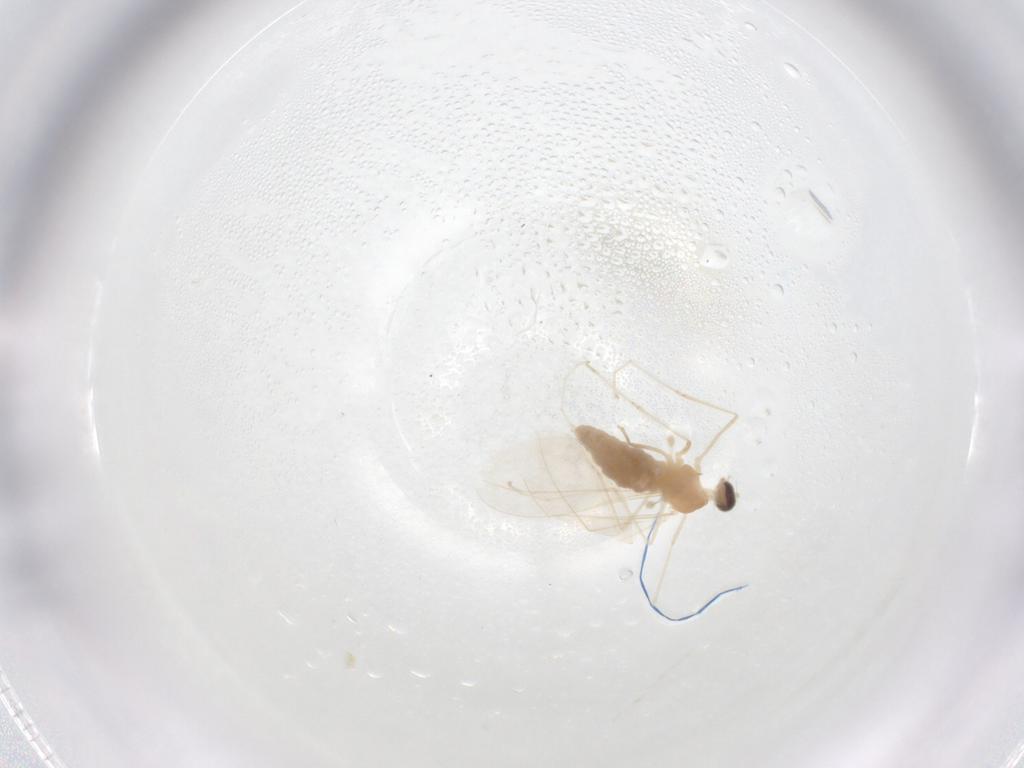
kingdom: Animalia
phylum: Arthropoda
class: Insecta
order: Diptera
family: Cecidomyiidae
